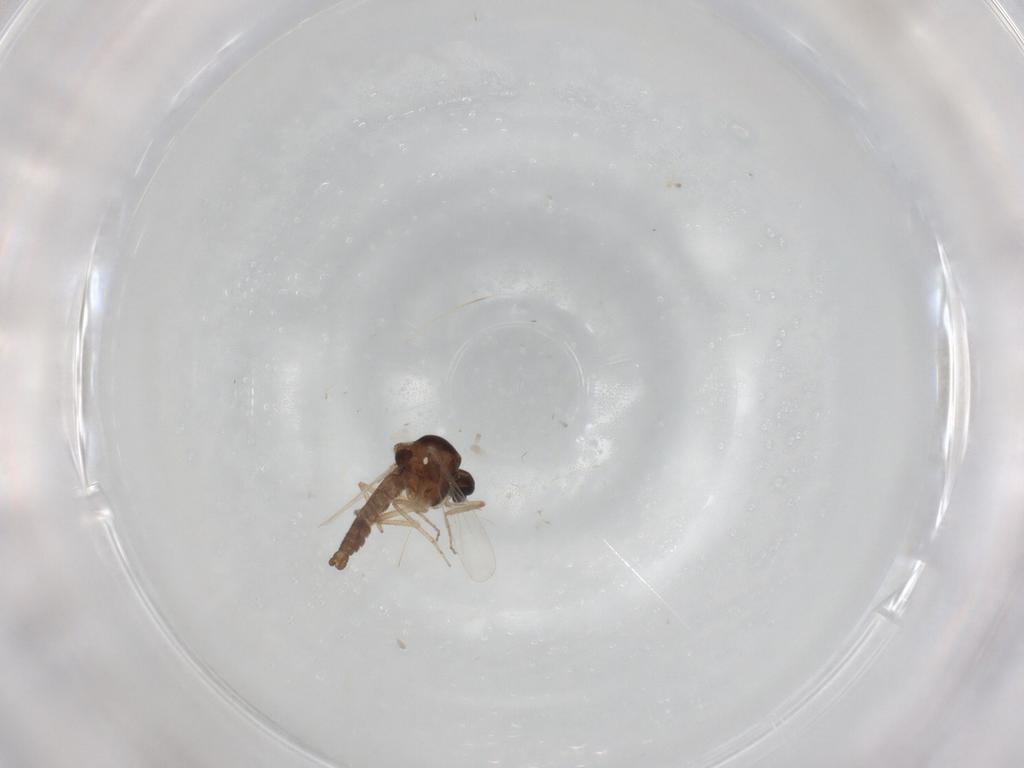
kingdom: Animalia
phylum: Arthropoda
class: Insecta
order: Diptera
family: Ceratopogonidae
